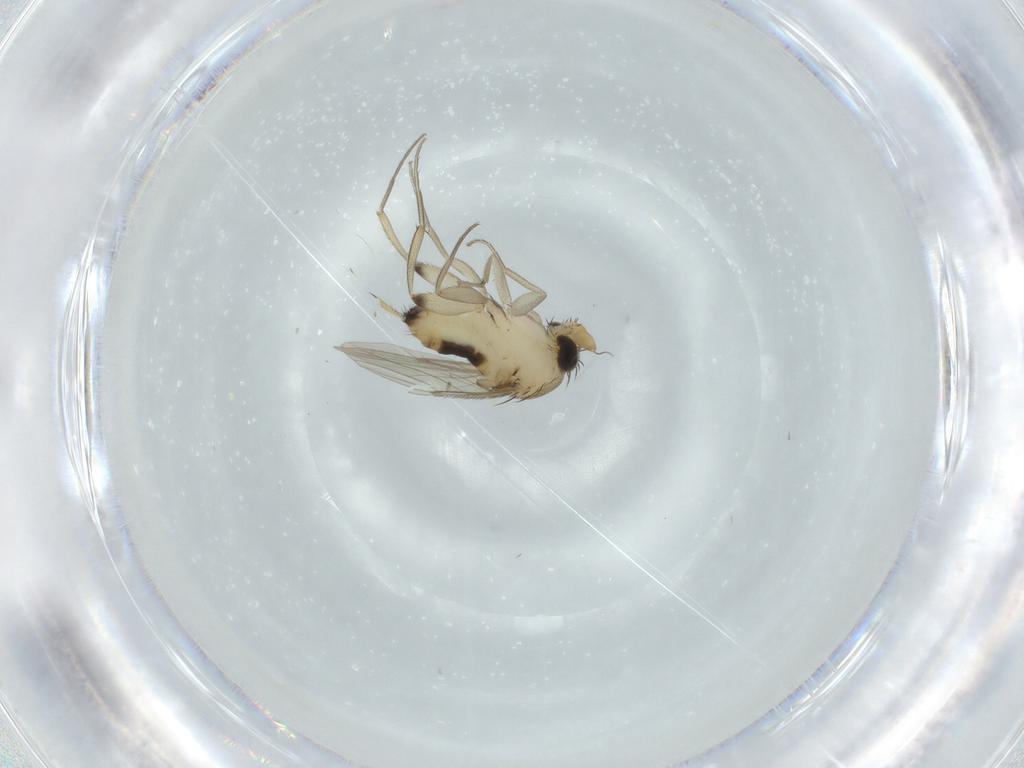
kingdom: Animalia
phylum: Arthropoda
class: Insecta
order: Diptera
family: Phoridae
